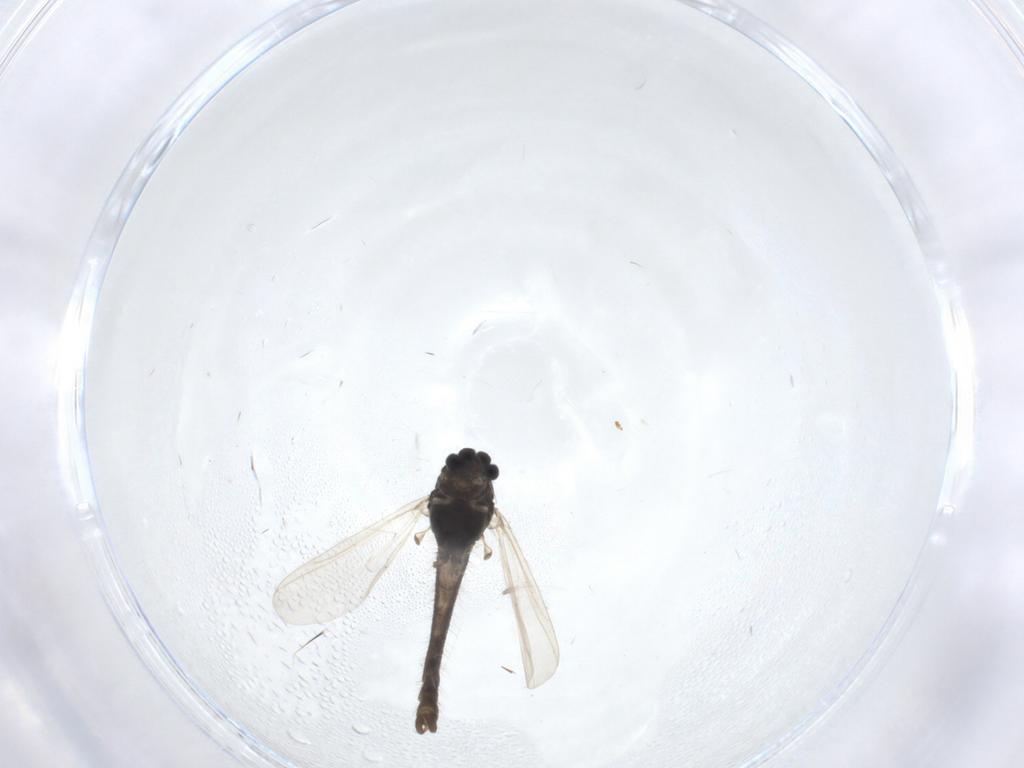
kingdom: Animalia
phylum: Arthropoda
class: Insecta
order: Diptera
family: Chironomidae
